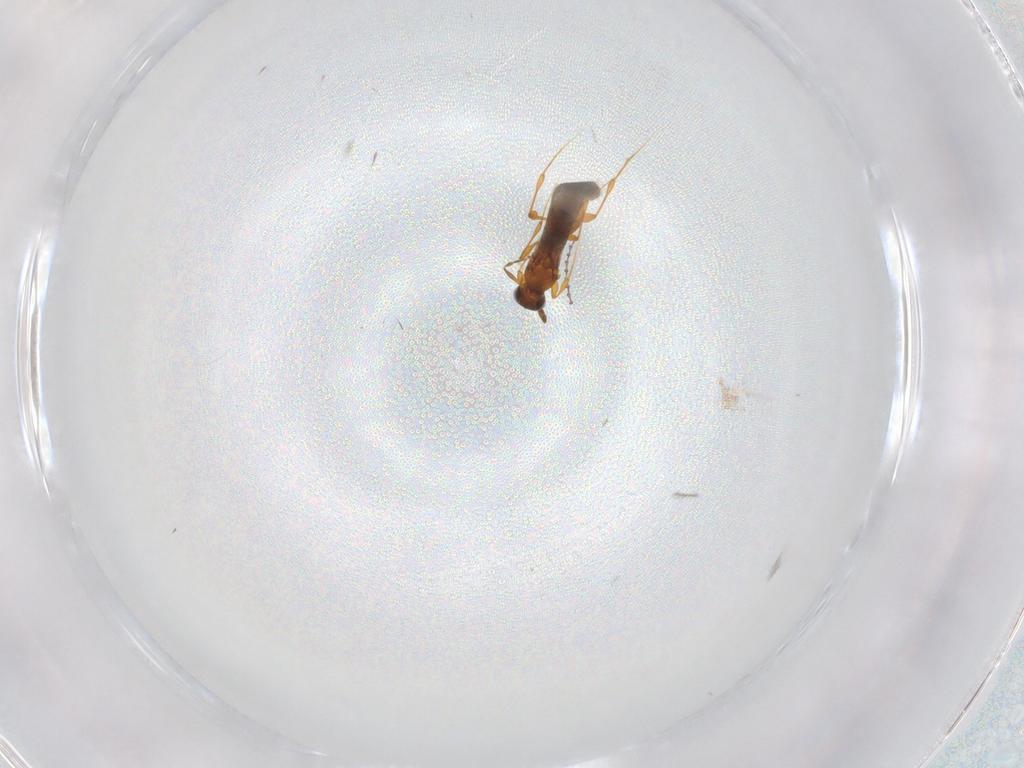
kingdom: Animalia
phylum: Arthropoda
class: Insecta
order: Hymenoptera
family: Platygastridae
